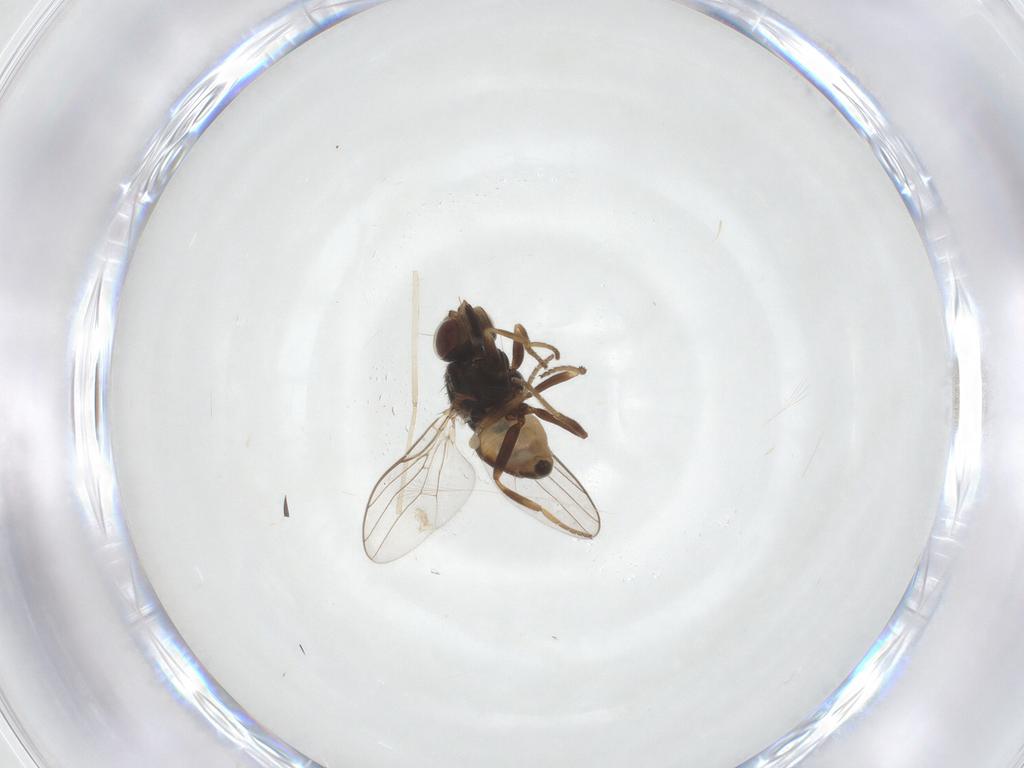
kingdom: Animalia
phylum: Arthropoda
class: Insecta
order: Diptera
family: Chloropidae
